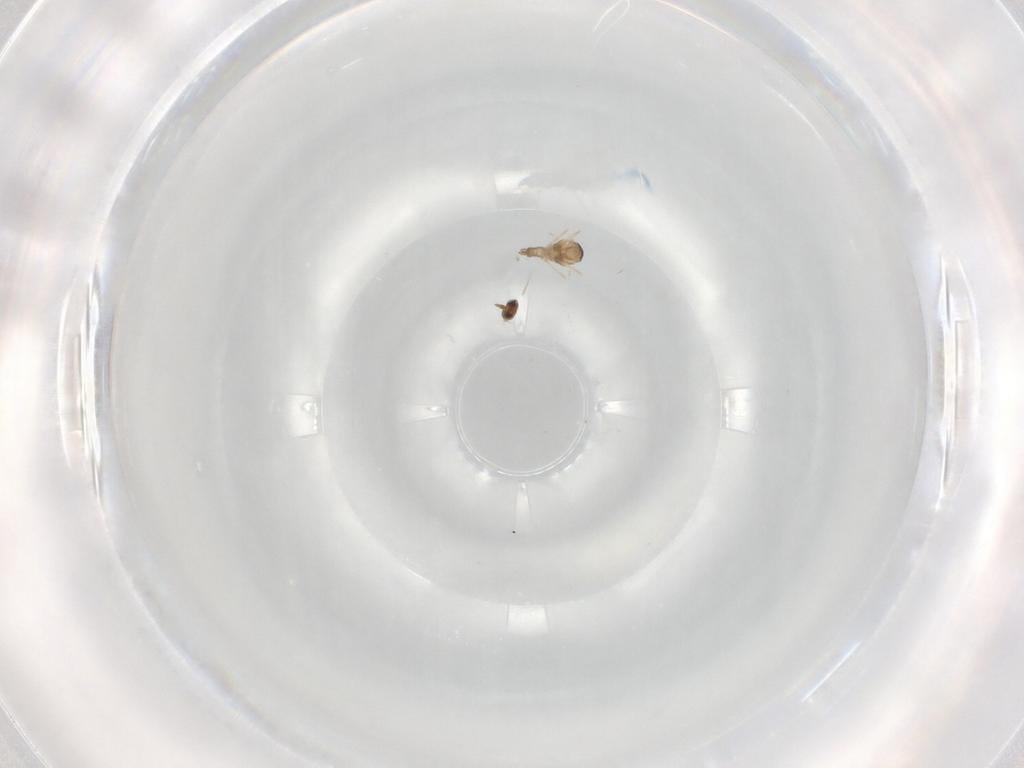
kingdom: Animalia
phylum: Arthropoda
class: Insecta
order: Diptera
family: Cecidomyiidae
